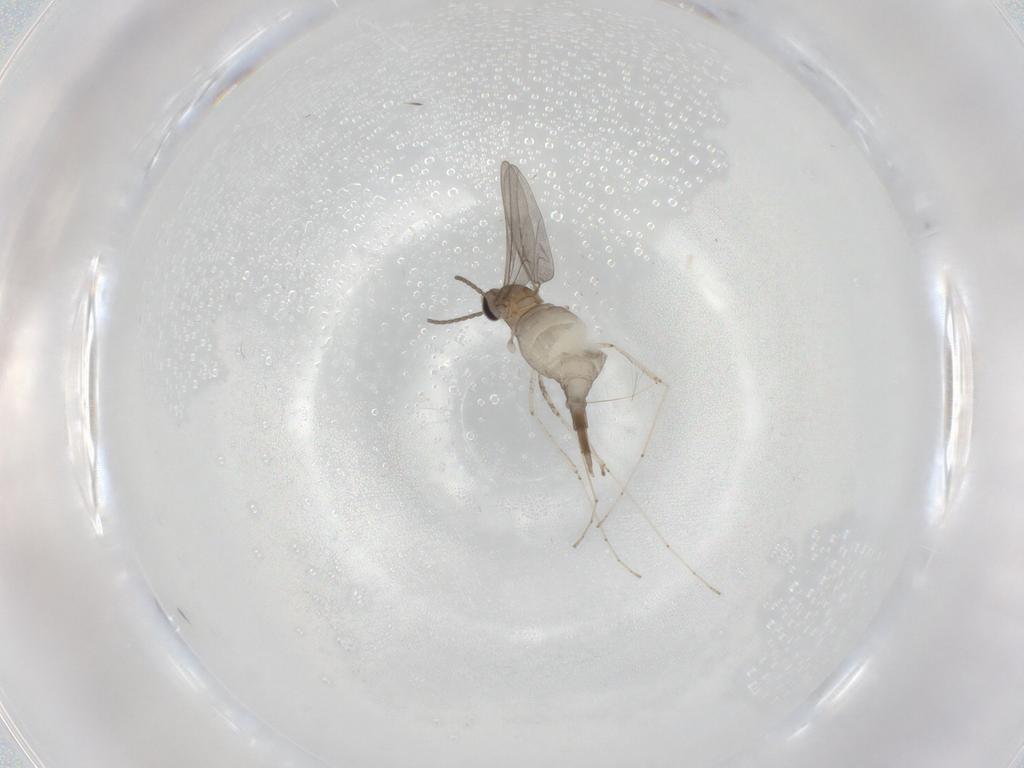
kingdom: Animalia
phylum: Arthropoda
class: Insecta
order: Diptera
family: Cecidomyiidae
